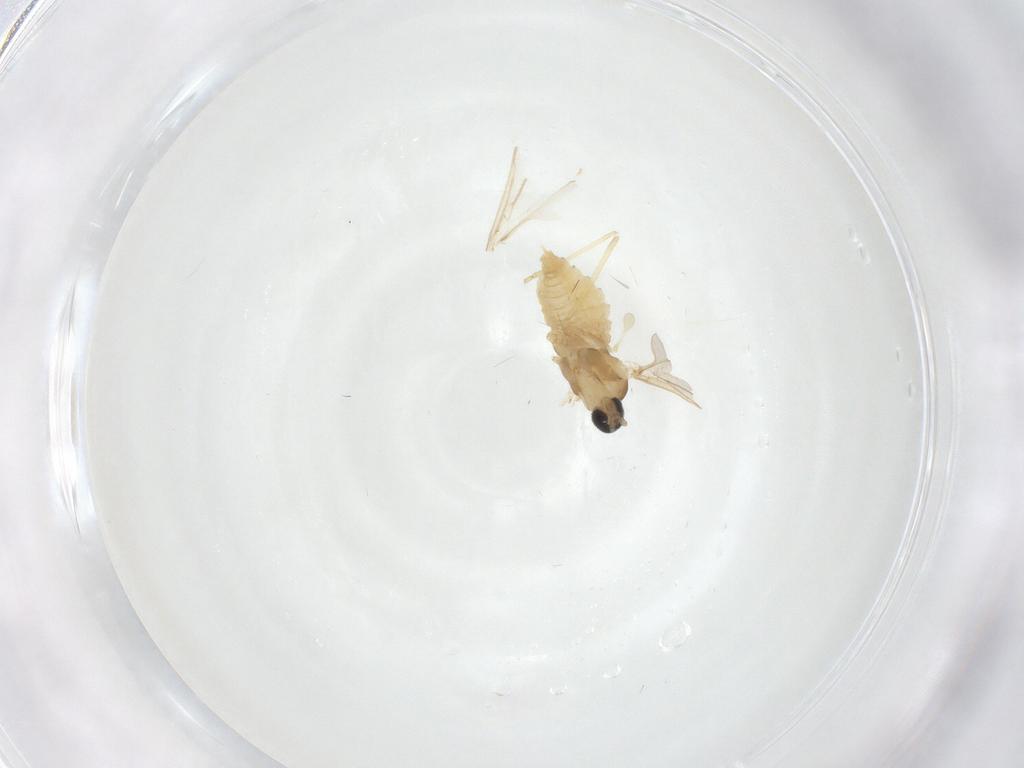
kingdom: Animalia
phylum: Arthropoda
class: Insecta
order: Diptera
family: Cecidomyiidae
